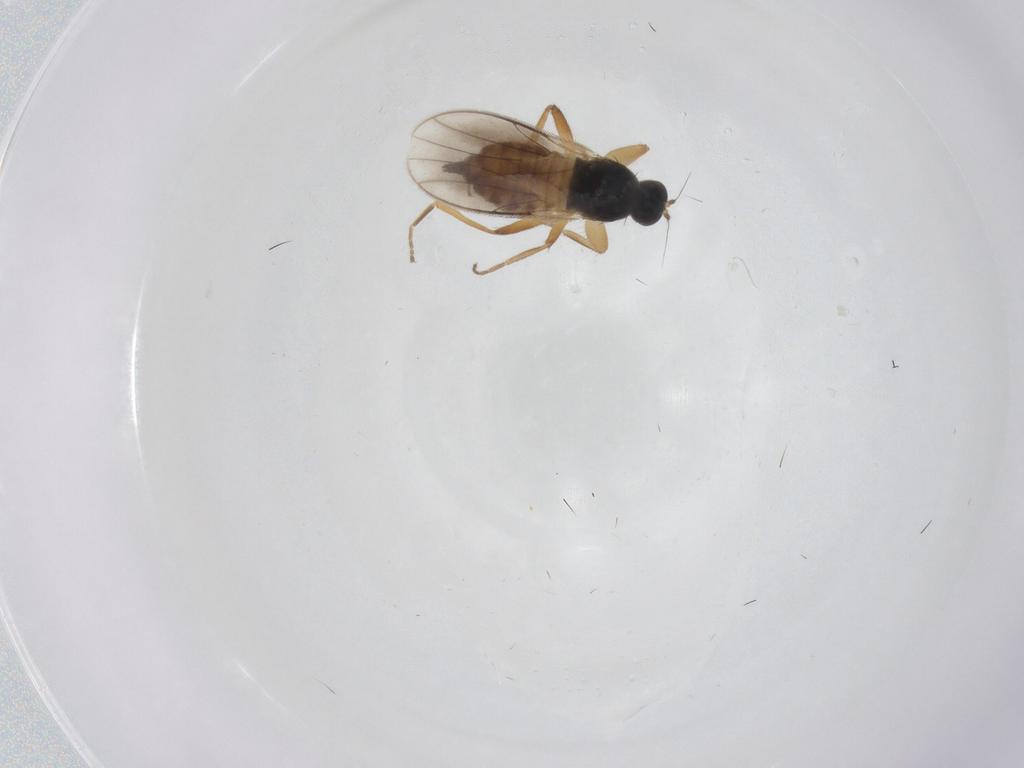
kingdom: Animalia
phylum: Arthropoda
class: Insecta
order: Diptera
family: Hybotidae
